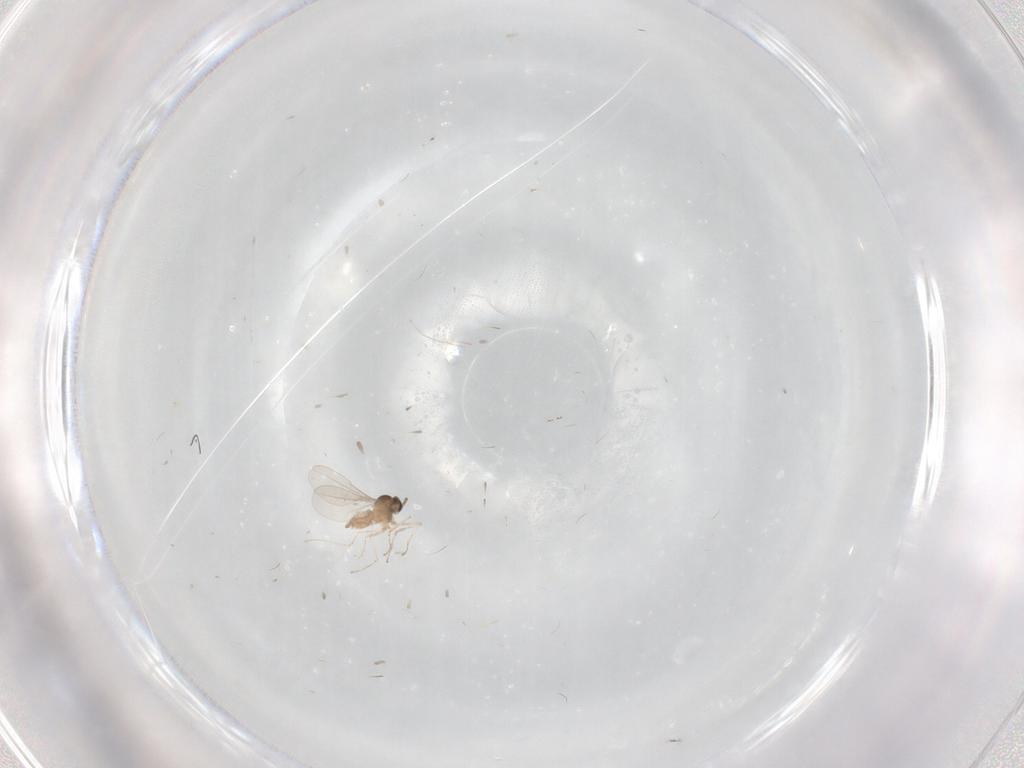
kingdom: Animalia
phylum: Arthropoda
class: Insecta
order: Diptera
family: Cecidomyiidae
